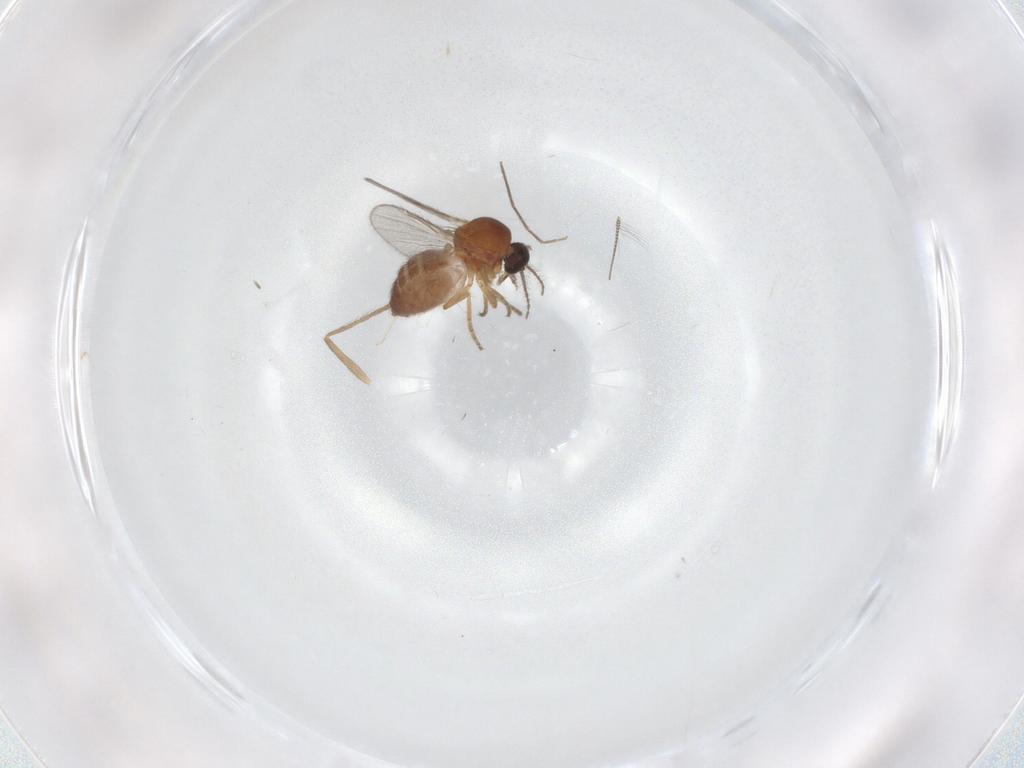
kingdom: Animalia
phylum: Arthropoda
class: Insecta
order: Diptera
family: Ceratopogonidae
